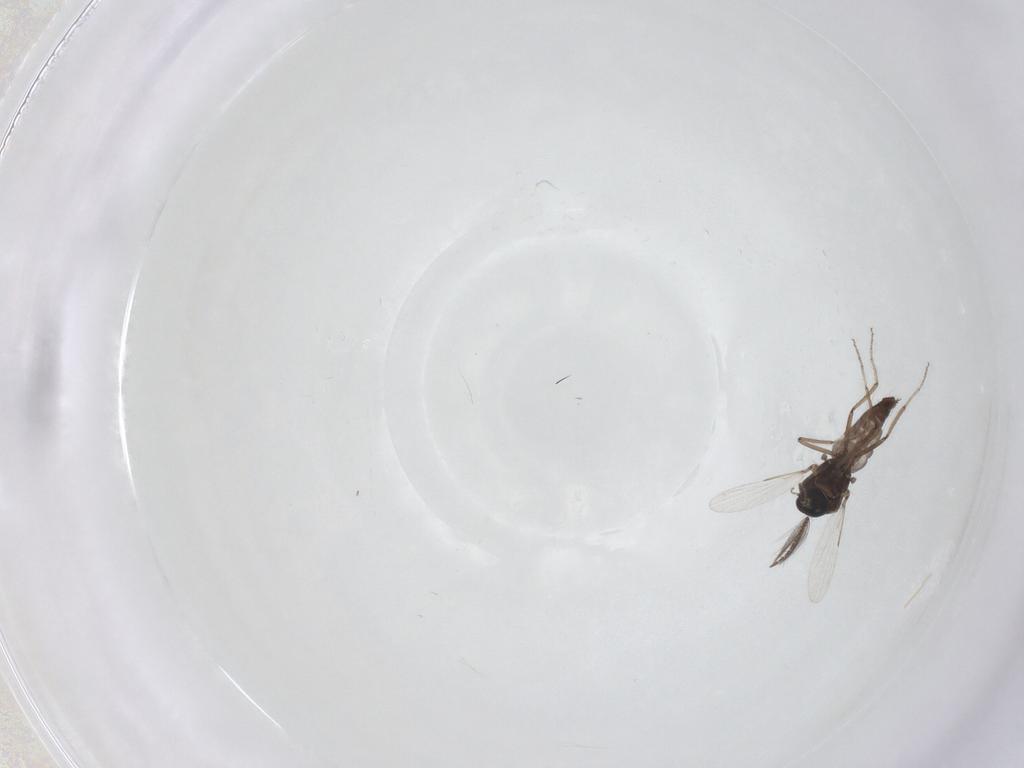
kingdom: Animalia
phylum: Arthropoda
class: Insecta
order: Diptera
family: Ceratopogonidae
